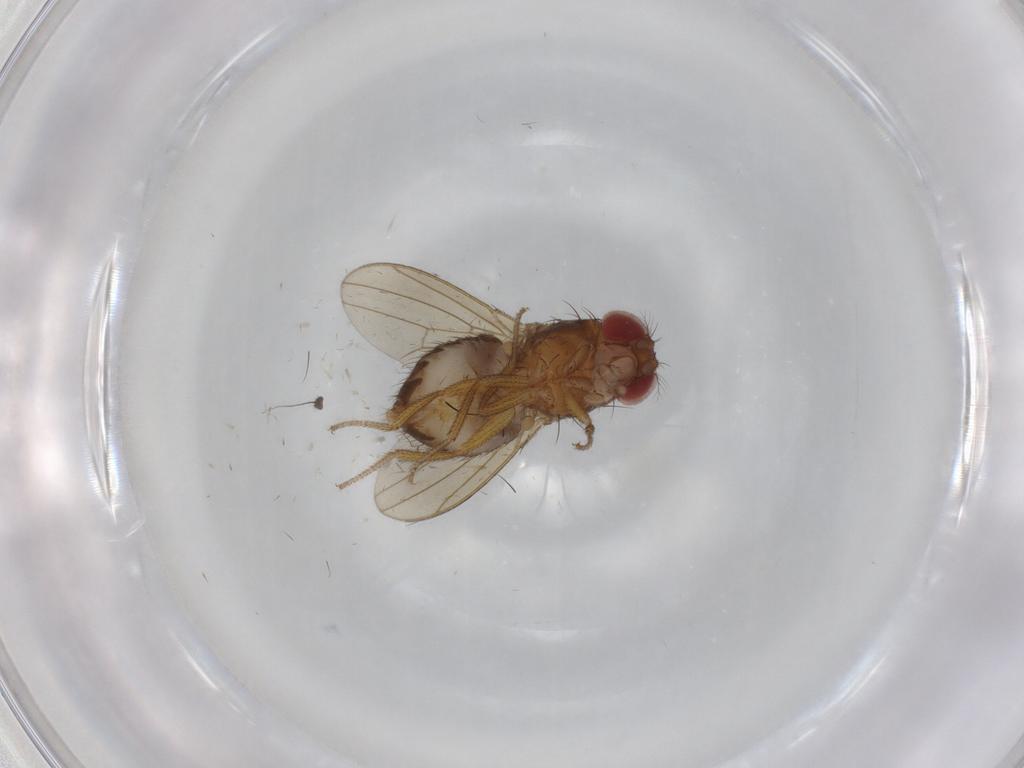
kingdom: Animalia
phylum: Arthropoda
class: Insecta
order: Diptera
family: Drosophilidae
